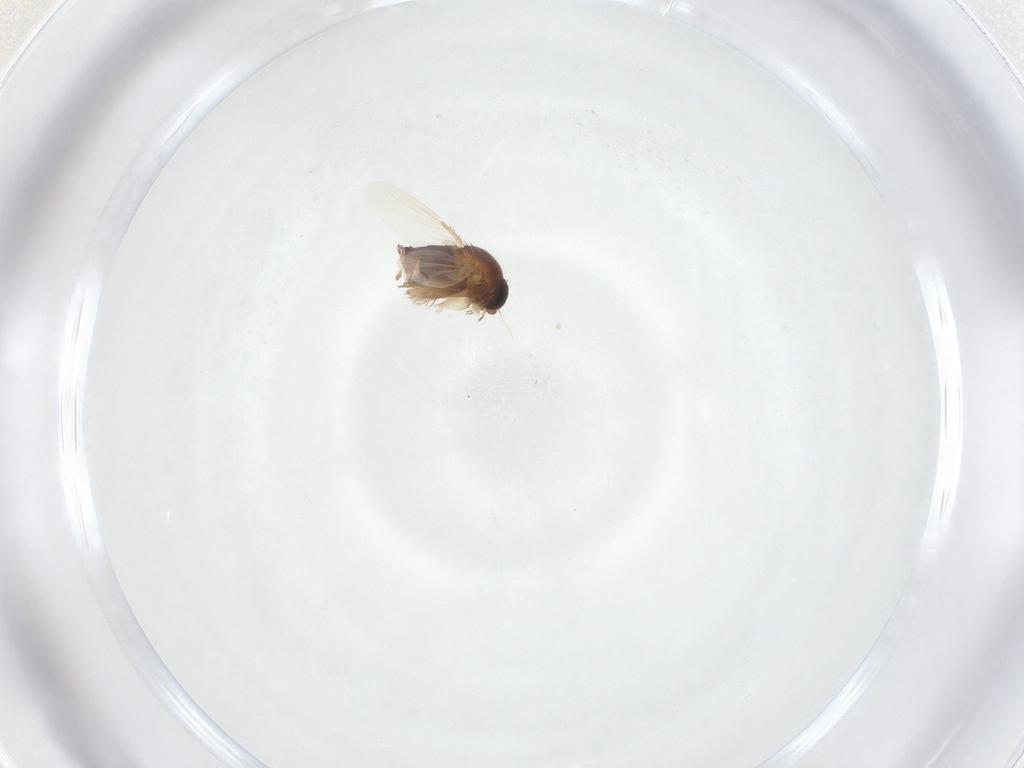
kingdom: Animalia
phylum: Arthropoda
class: Insecta
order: Diptera
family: Phoridae
